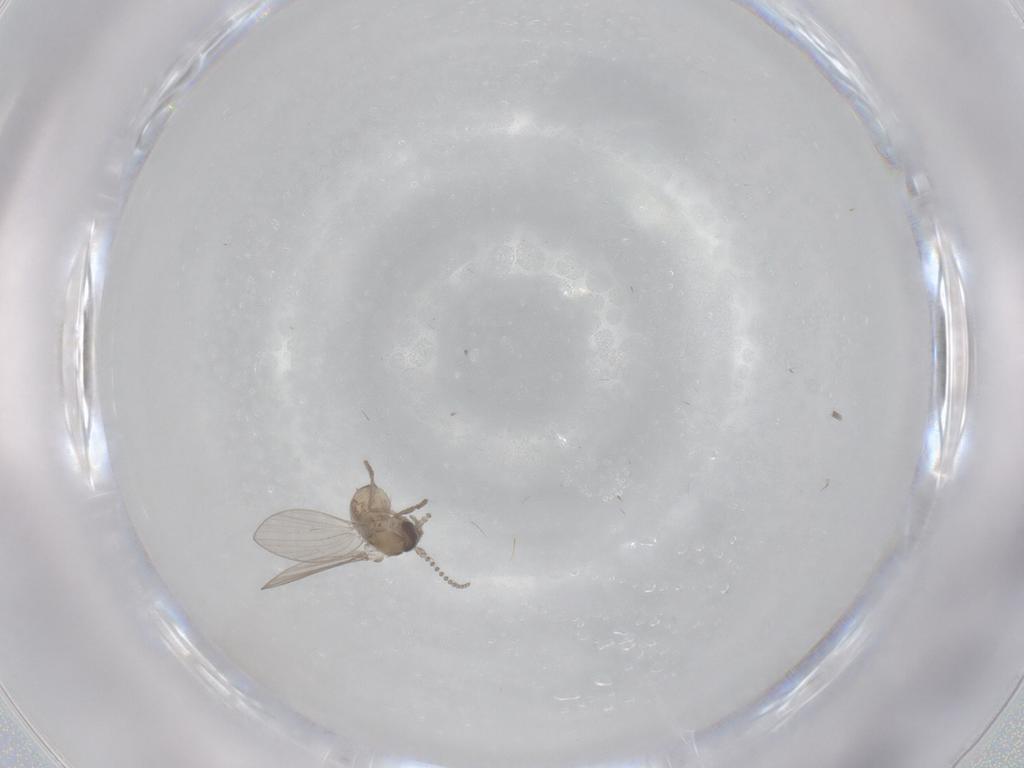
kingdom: Animalia
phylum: Arthropoda
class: Insecta
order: Diptera
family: Psychodidae
